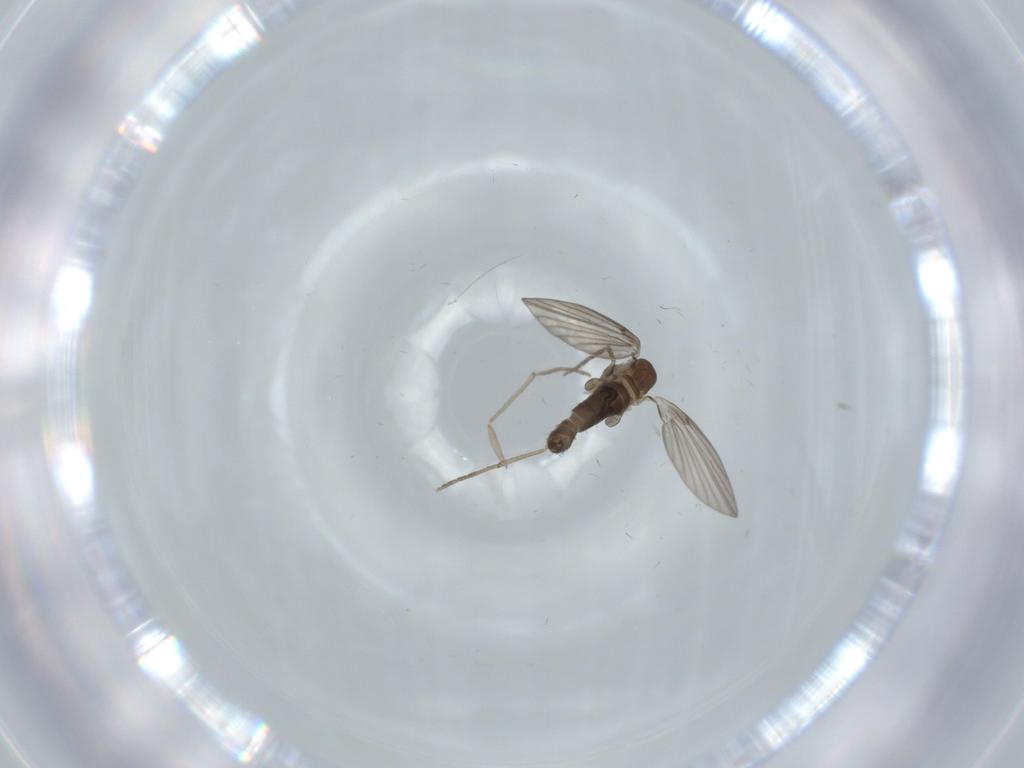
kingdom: Animalia
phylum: Arthropoda
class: Insecta
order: Diptera
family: Psychodidae
